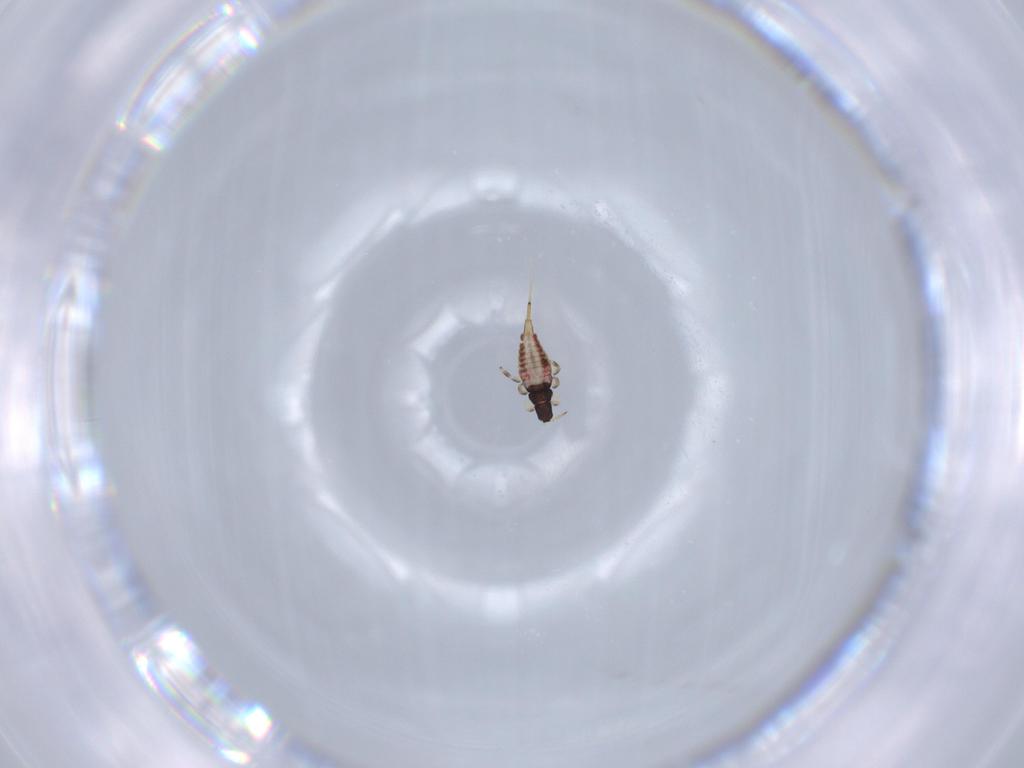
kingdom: Animalia
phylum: Arthropoda
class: Insecta
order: Thysanoptera
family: Phlaeothripidae
